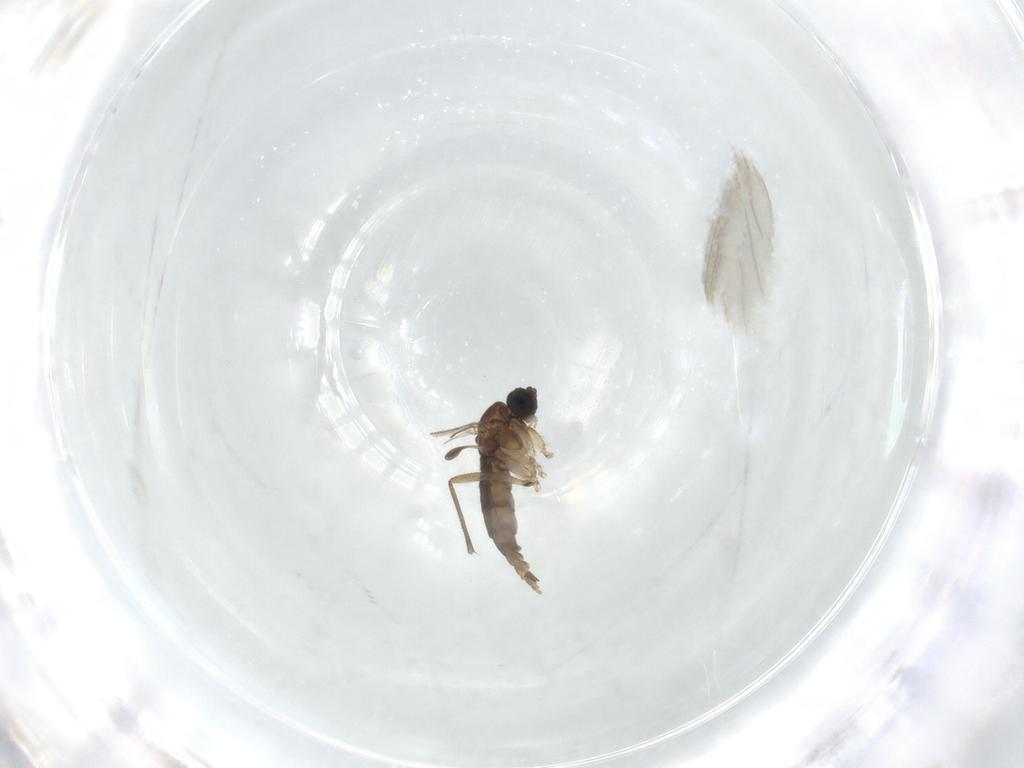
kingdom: Animalia
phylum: Arthropoda
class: Insecta
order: Diptera
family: Sciaridae
